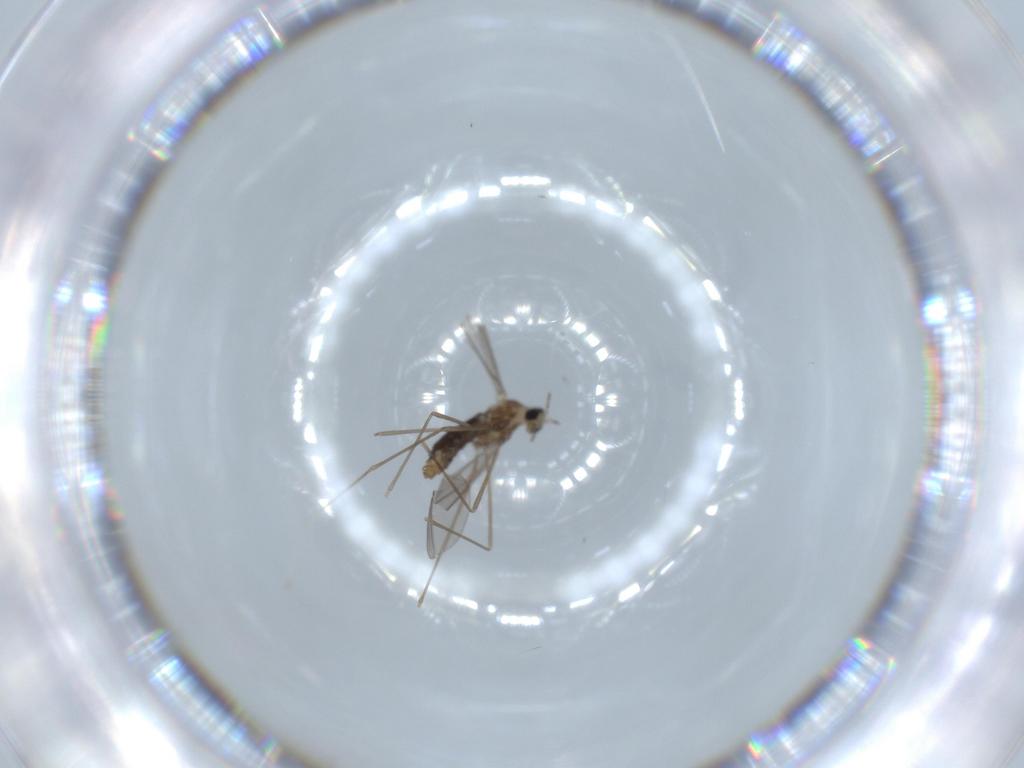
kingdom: Animalia
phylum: Arthropoda
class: Insecta
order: Diptera
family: Cecidomyiidae
